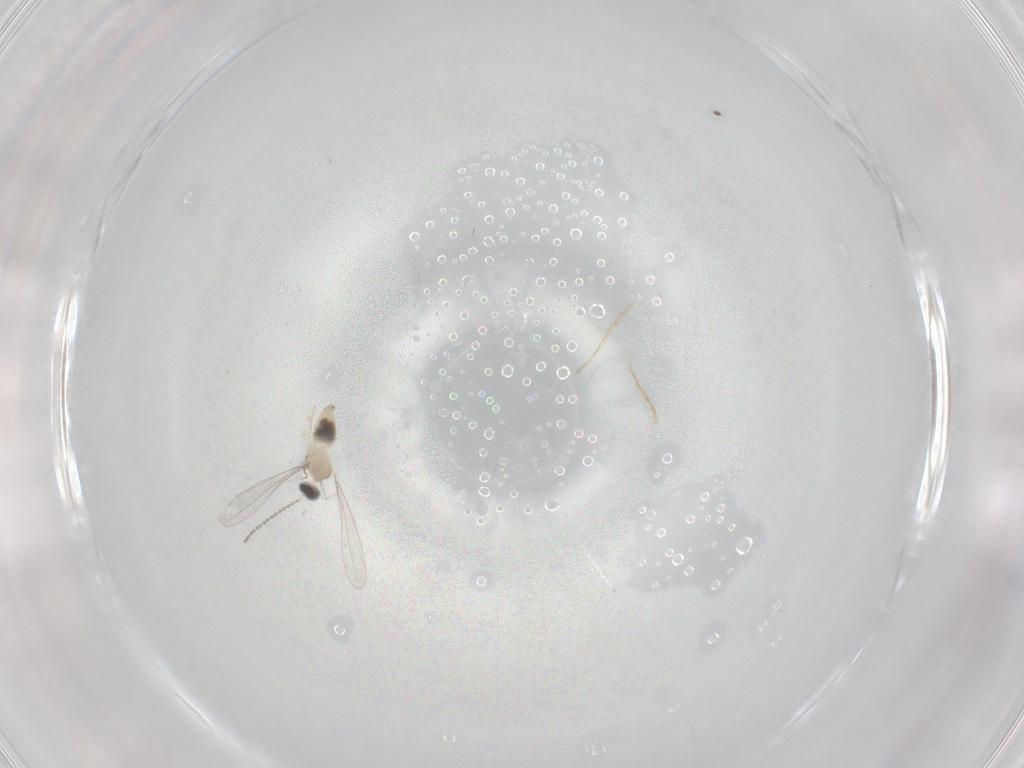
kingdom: Animalia
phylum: Arthropoda
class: Insecta
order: Diptera
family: Cecidomyiidae
